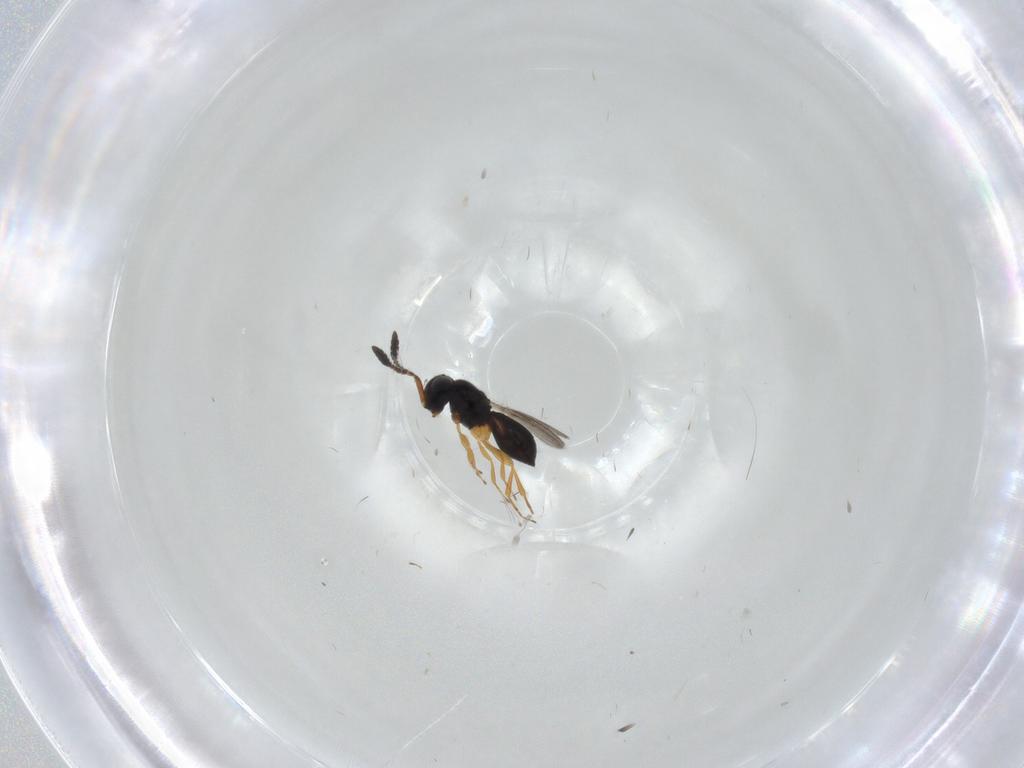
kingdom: Animalia
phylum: Arthropoda
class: Insecta
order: Hymenoptera
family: Scelionidae
